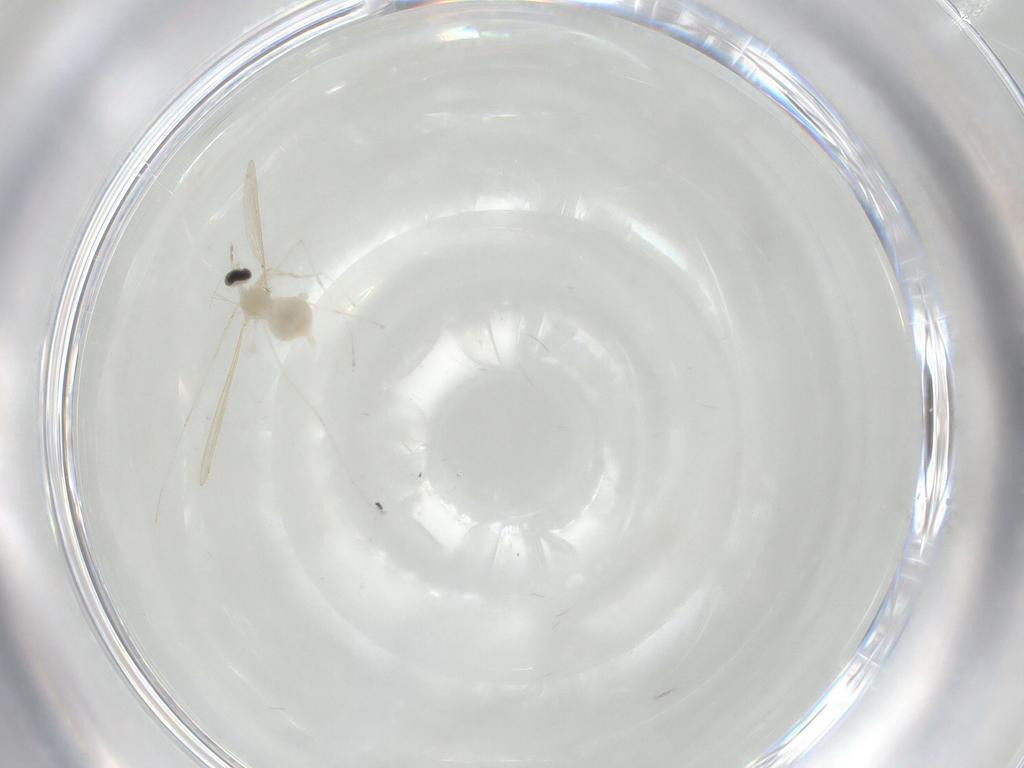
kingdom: Animalia
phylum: Arthropoda
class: Insecta
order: Diptera
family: Cecidomyiidae
